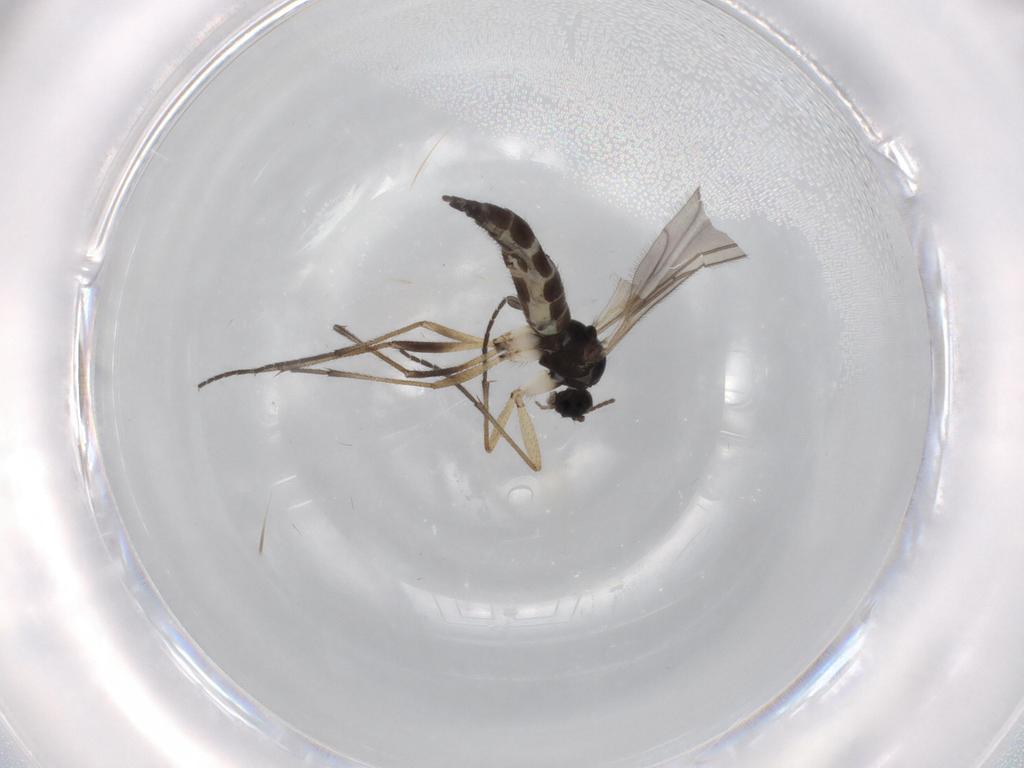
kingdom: Animalia
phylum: Arthropoda
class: Insecta
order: Diptera
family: Sciaridae
